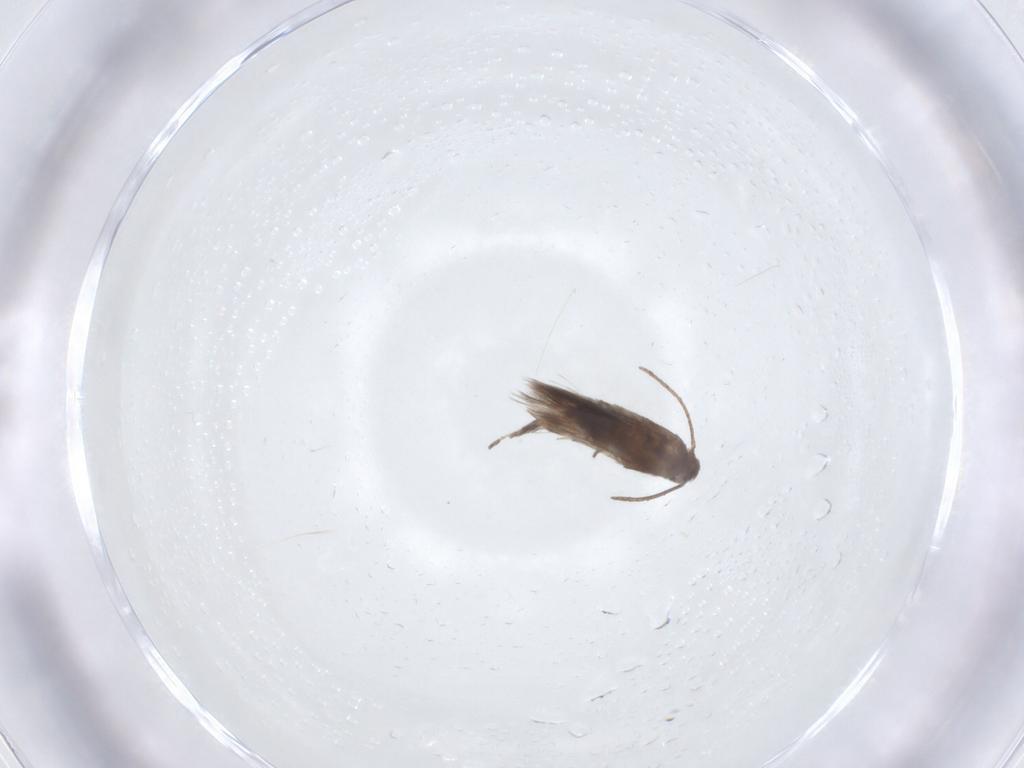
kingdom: Animalia
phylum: Arthropoda
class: Insecta
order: Lepidoptera
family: Lyonetiidae
